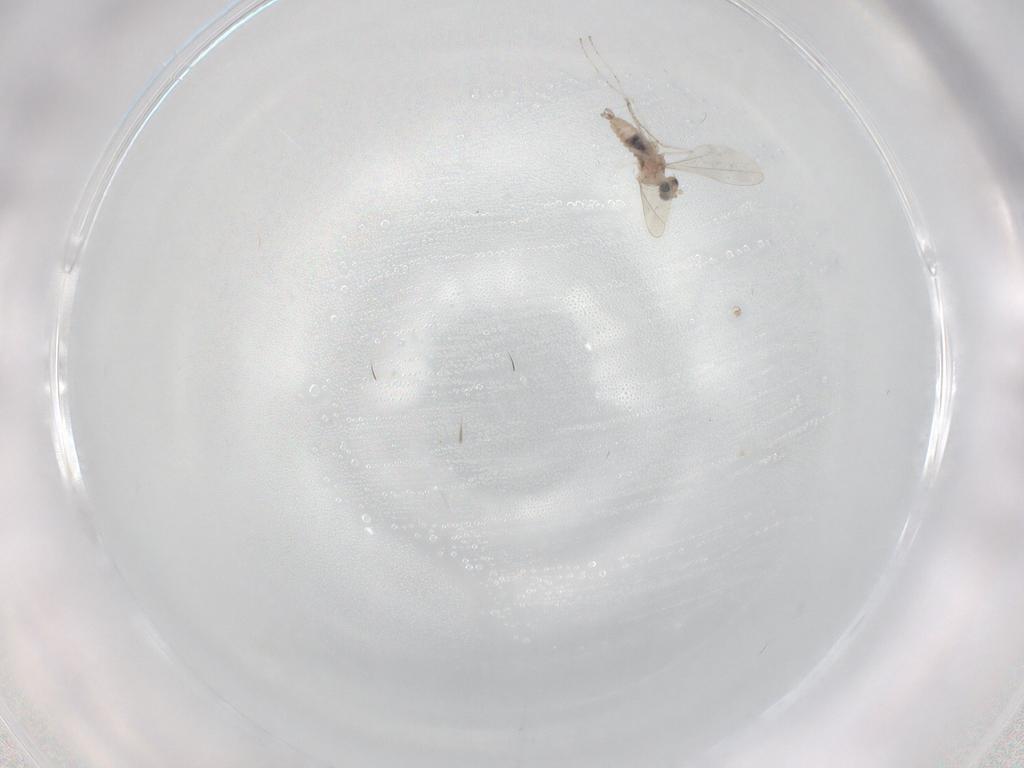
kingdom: Animalia
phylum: Arthropoda
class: Insecta
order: Diptera
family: Cecidomyiidae
